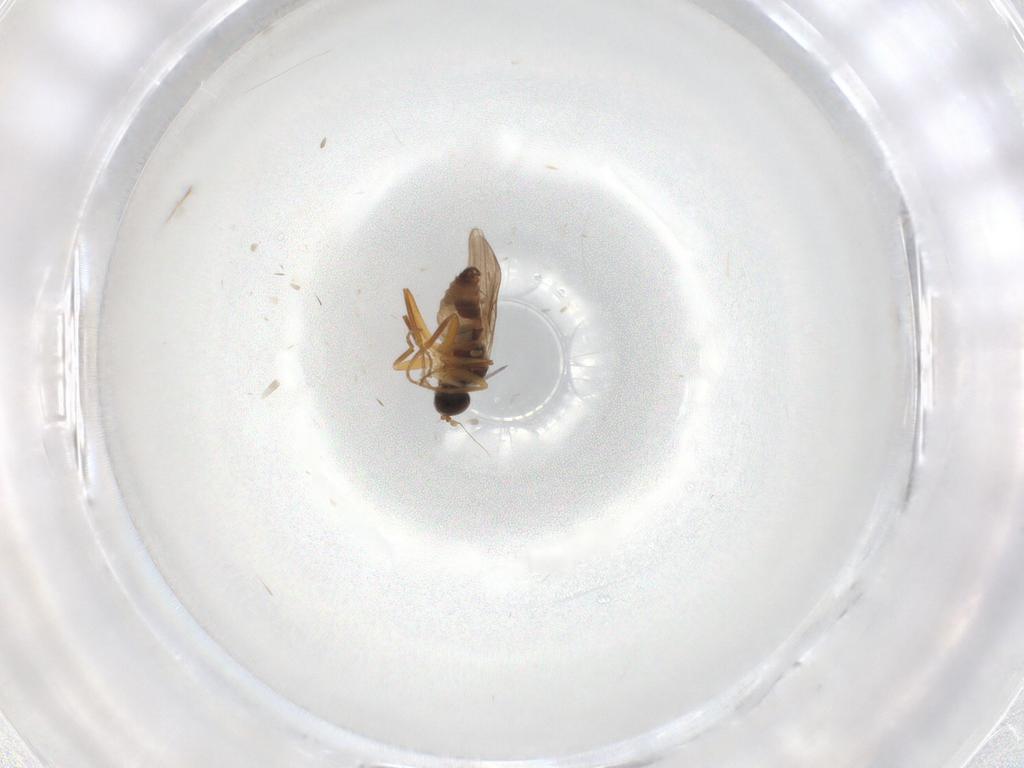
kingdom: Animalia
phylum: Arthropoda
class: Insecta
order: Diptera
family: Hybotidae
